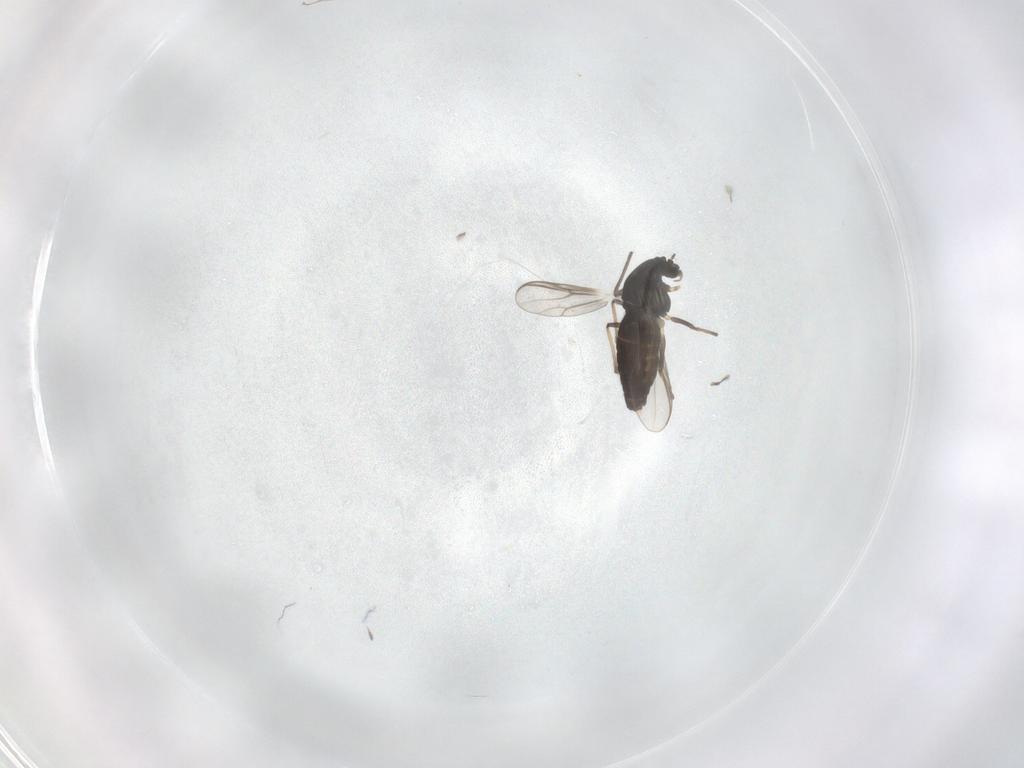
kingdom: Animalia
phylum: Arthropoda
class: Insecta
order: Diptera
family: Chironomidae
